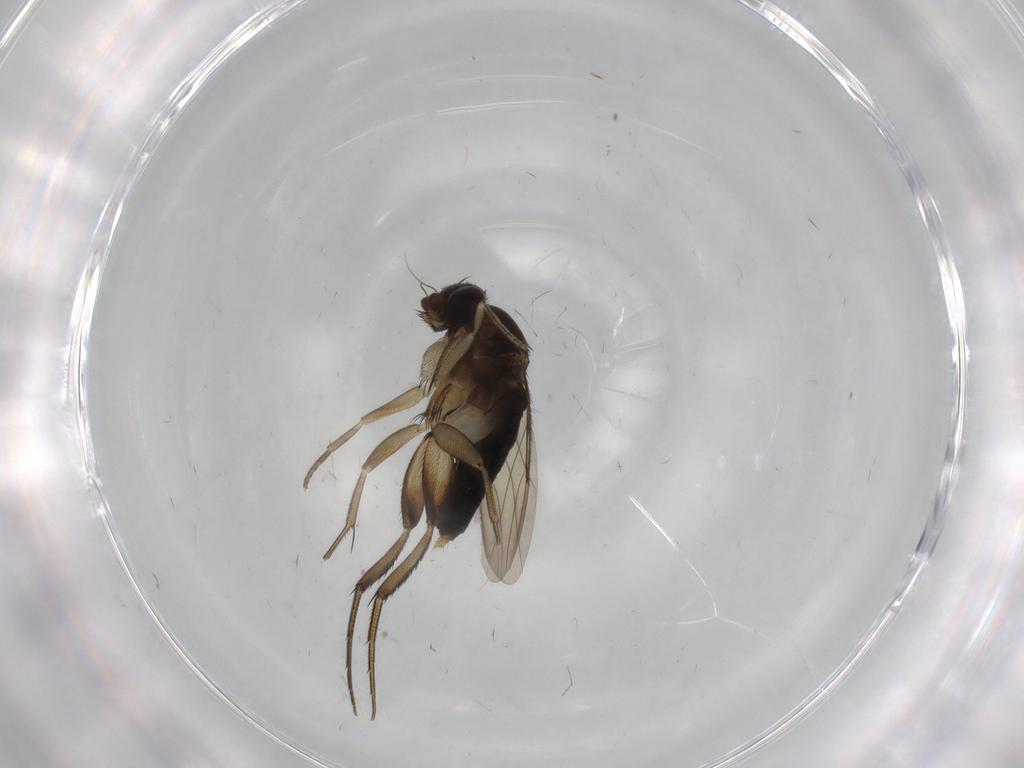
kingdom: Animalia
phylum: Arthropoda
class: Insecta
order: Diptera
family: Phoridae
